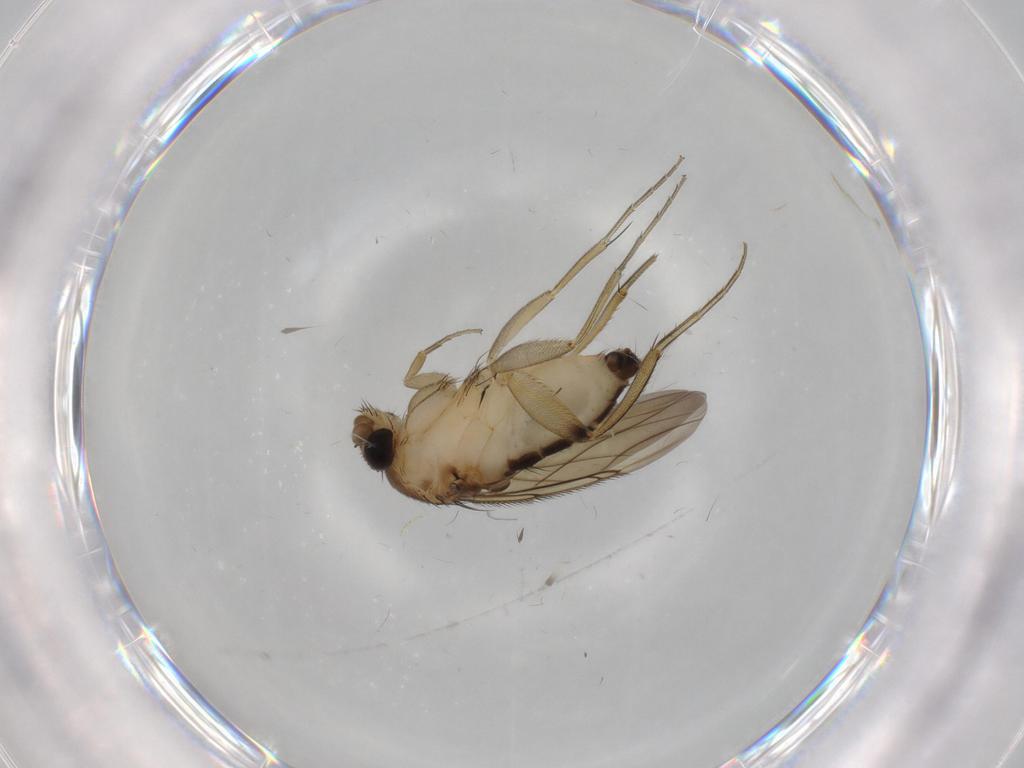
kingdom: Animalia
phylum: Arthropoda
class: Insecta
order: Diptera
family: Phoridae
